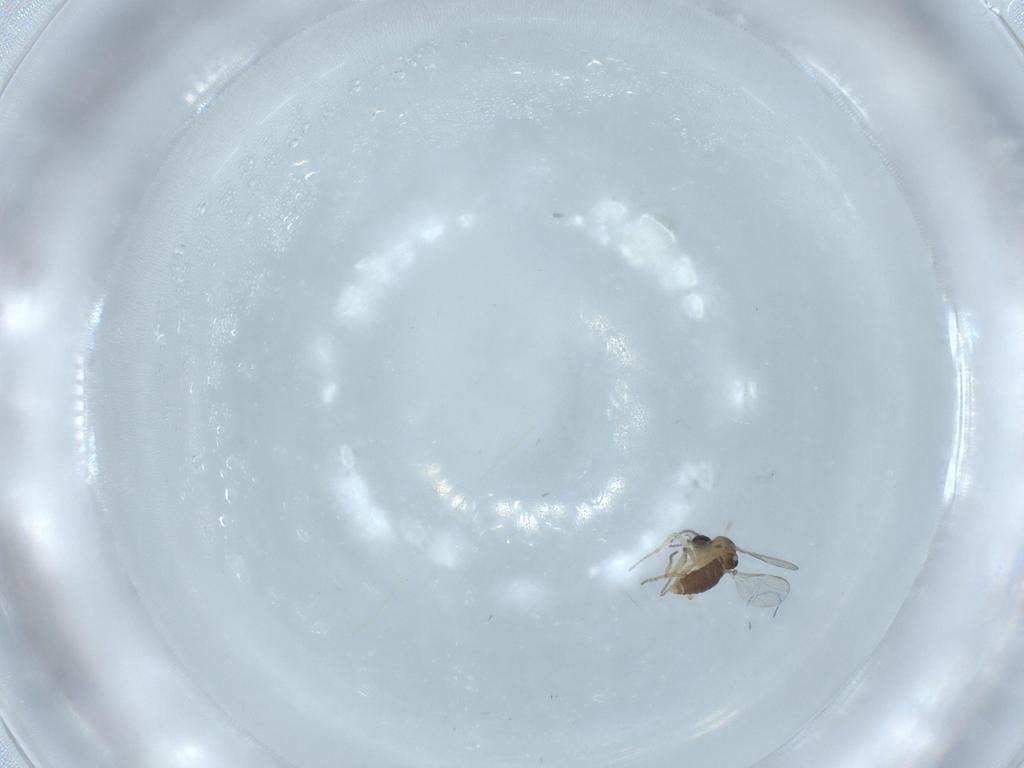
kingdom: Animalia
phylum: Arthropoda
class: Insecta
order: Diptera
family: Ceratopogonidae
